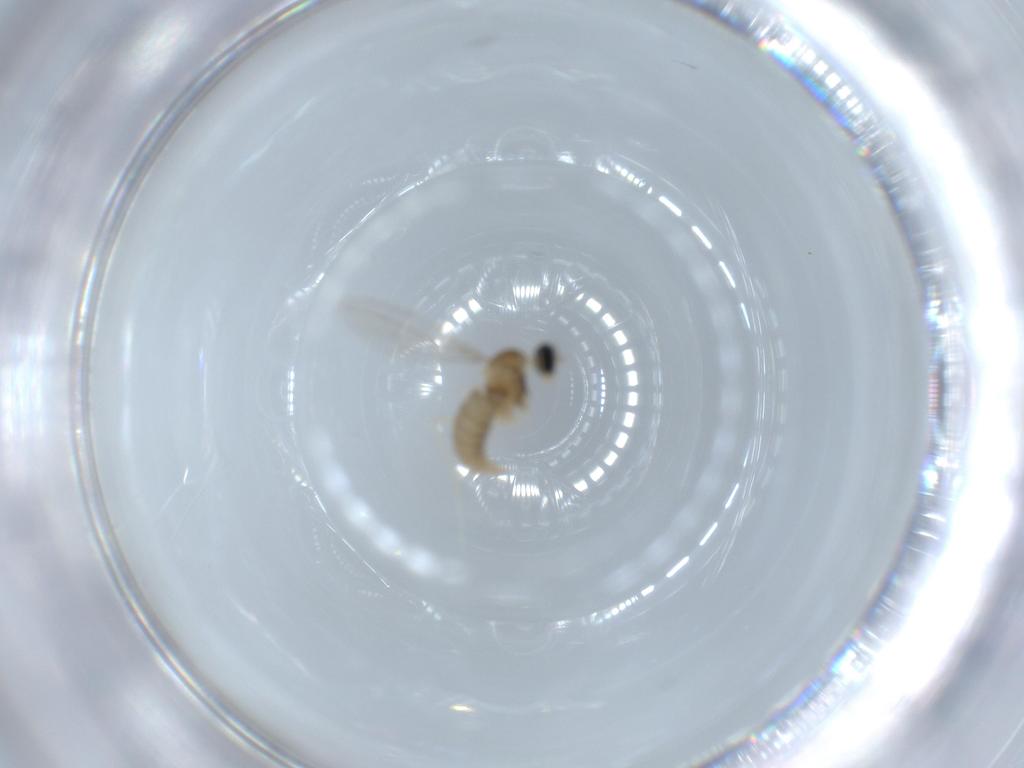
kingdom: Animalia
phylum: Arthropoda
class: Insecta
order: Diptera
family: Cecidomyiidae
